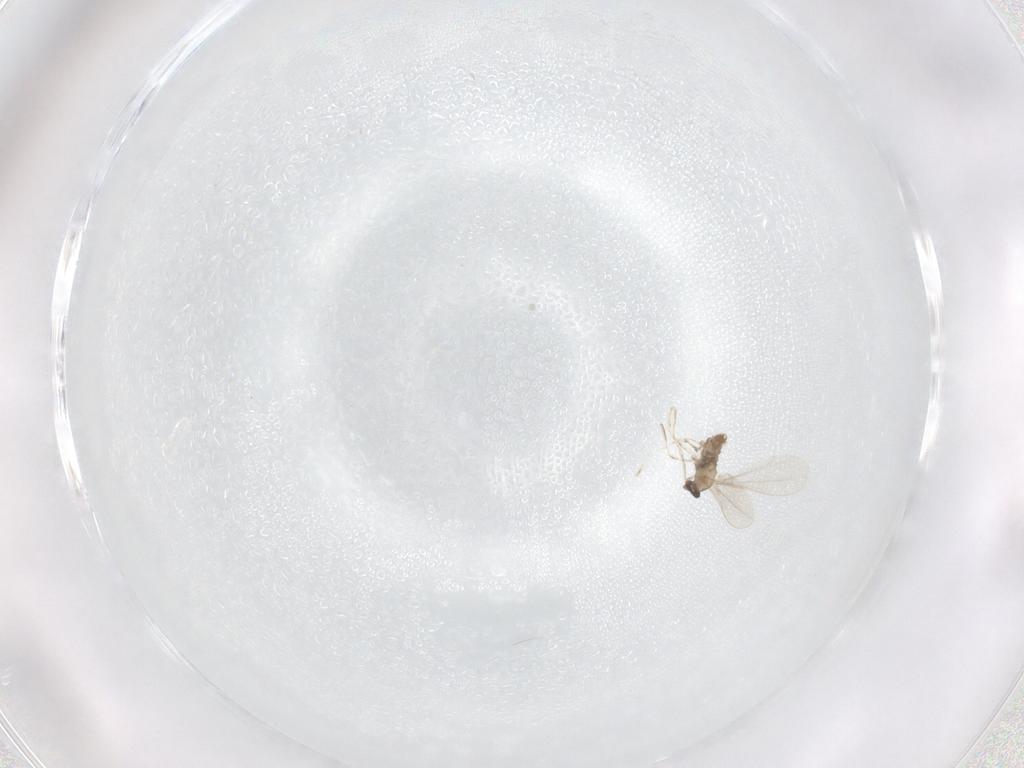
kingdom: Animalia
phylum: Arthropoda
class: Insecta
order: Diptera
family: Cecidomyiidae
